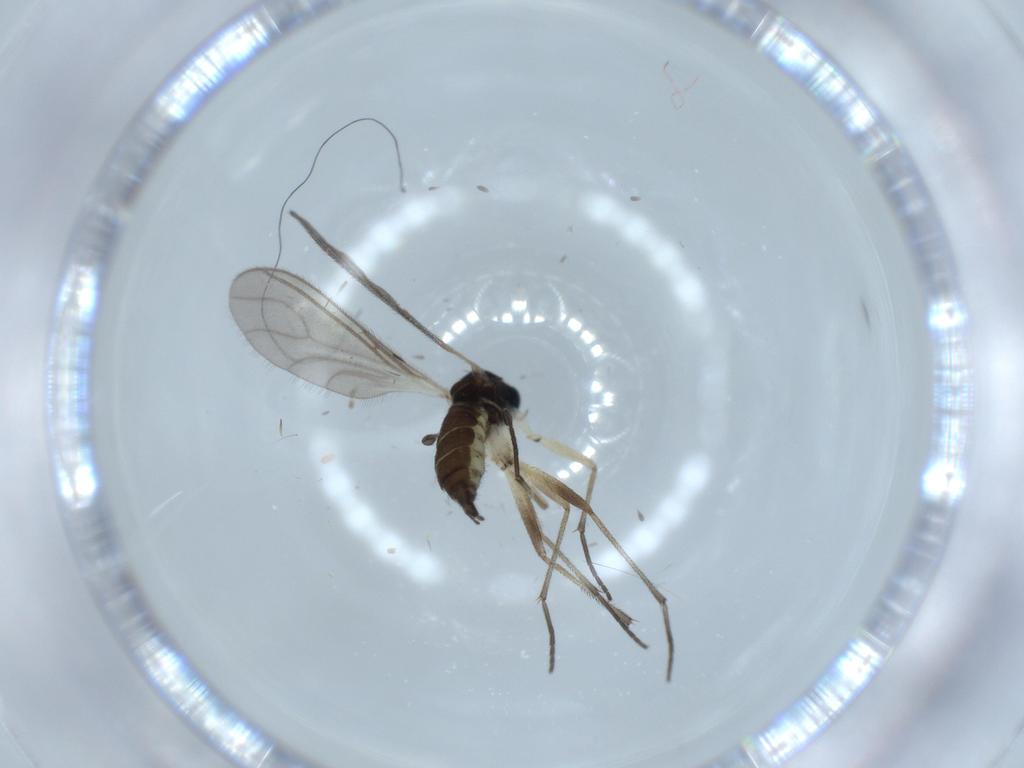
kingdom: Animalia
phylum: Arthropoda
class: Insecta
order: Diptera
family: Sciaridae
